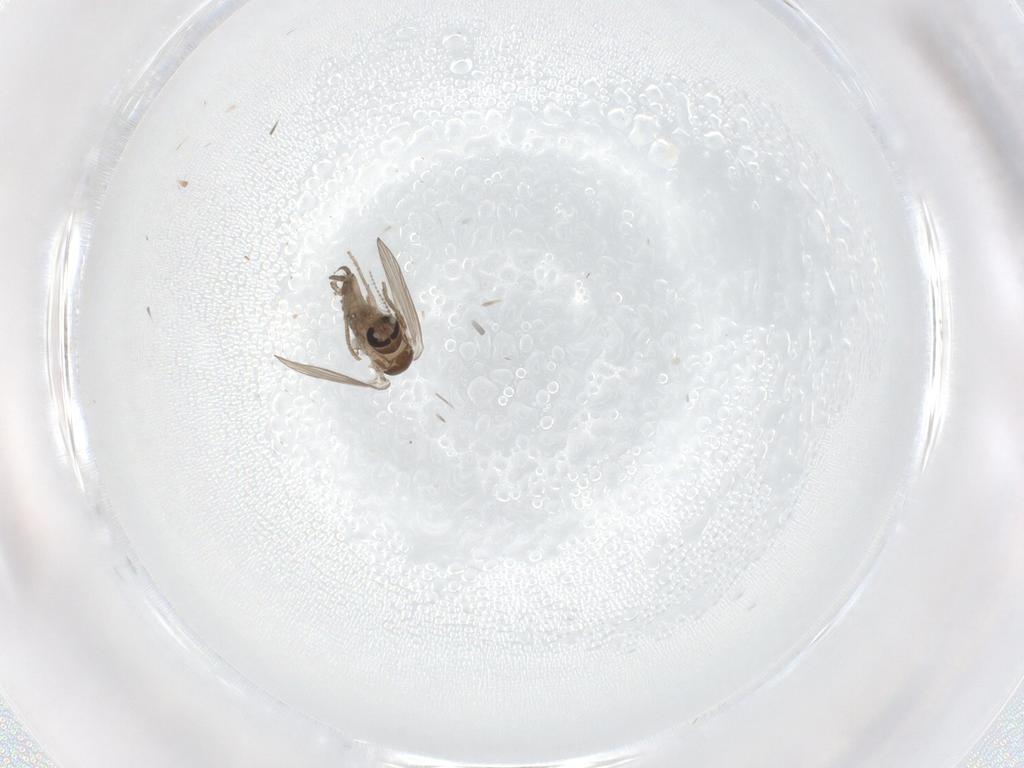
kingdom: Animalia
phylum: Arthropoda
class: Insecta
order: Diptera
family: Psychodidae
